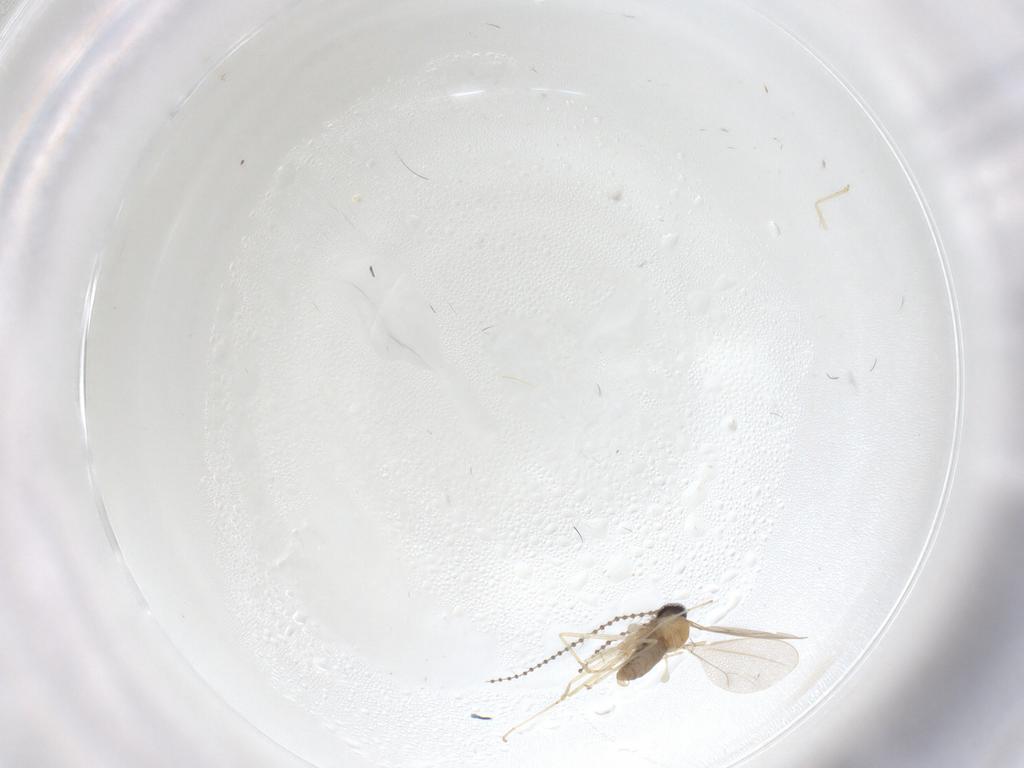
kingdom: Animalia
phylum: Arthropoda
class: Insecta
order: Diptera
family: Cecidomyiidae
